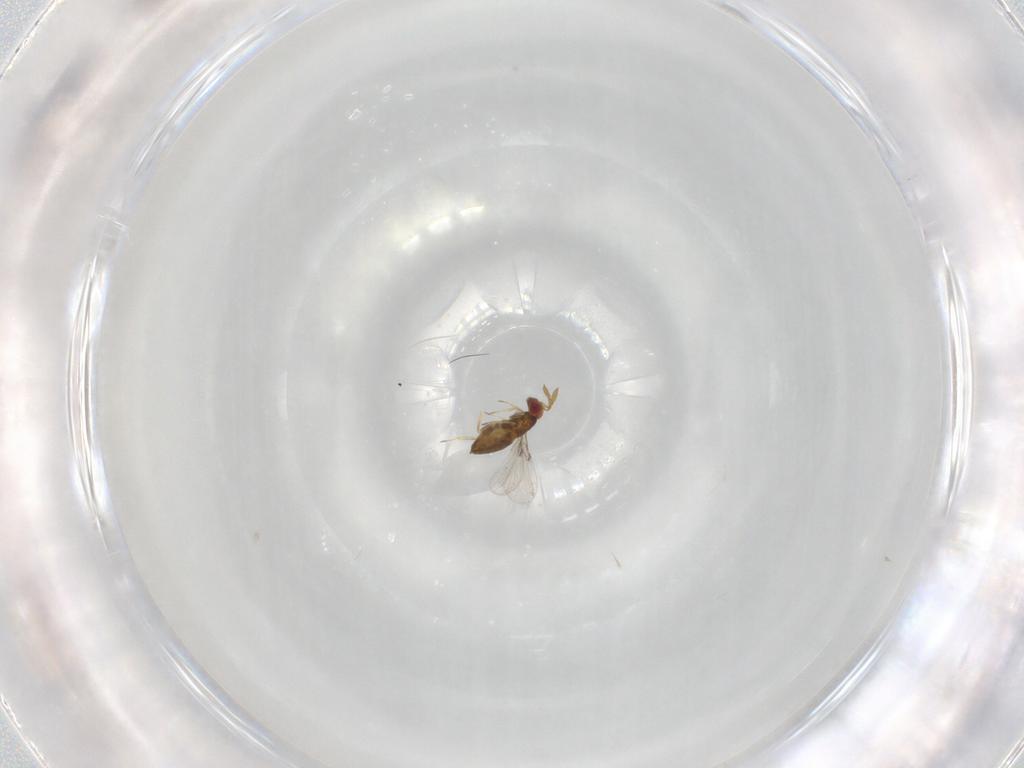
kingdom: Animalia
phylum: Arthropoda
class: Insecta
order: Hymenoptera
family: Agaonidae
